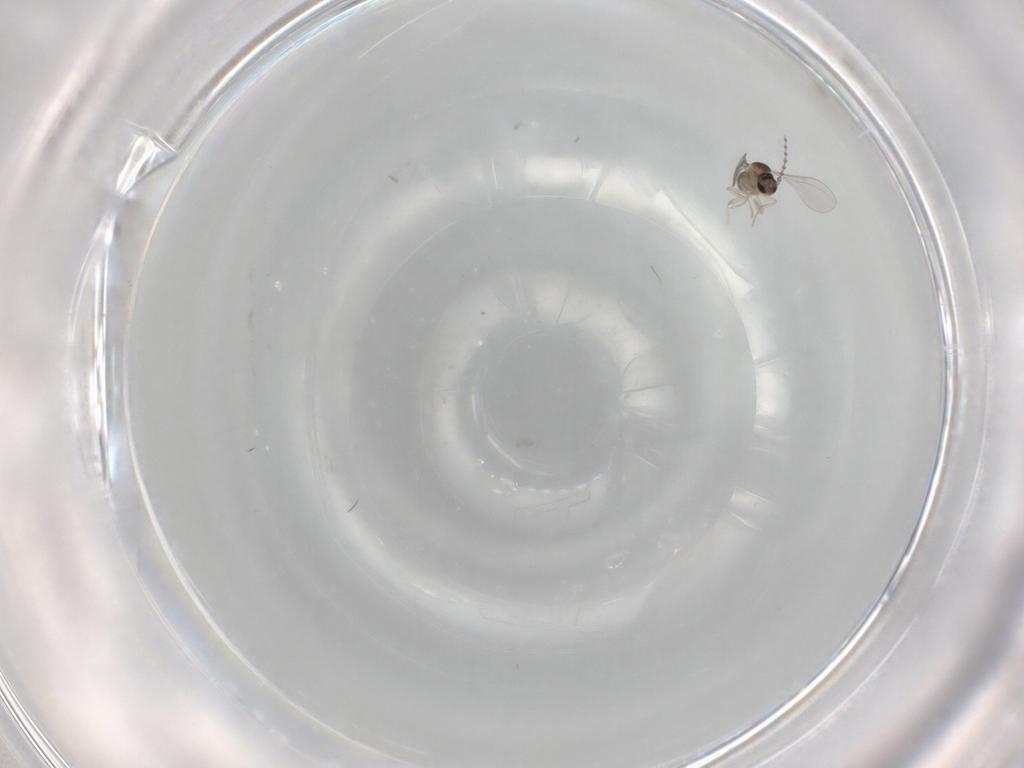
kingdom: Animalia
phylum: Arthropoda
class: Insecta
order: Diptera
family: Cecidomyiidae
